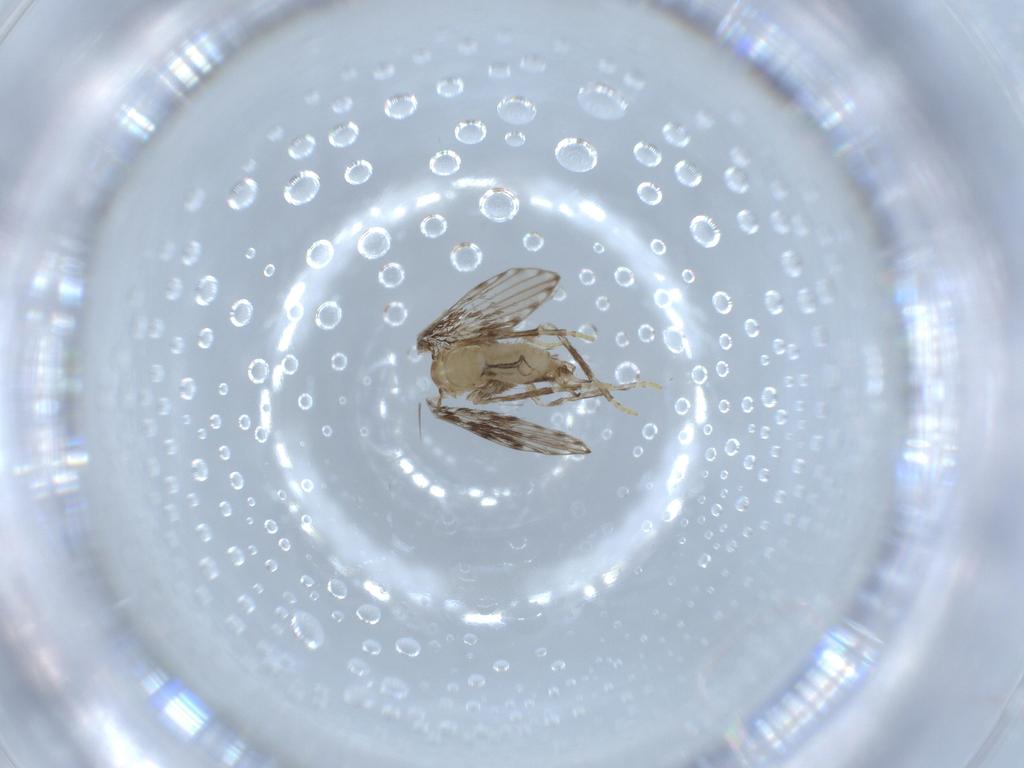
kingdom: Animalia
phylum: Arthropoda
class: Insecta
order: Diptera
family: Psychodidae
